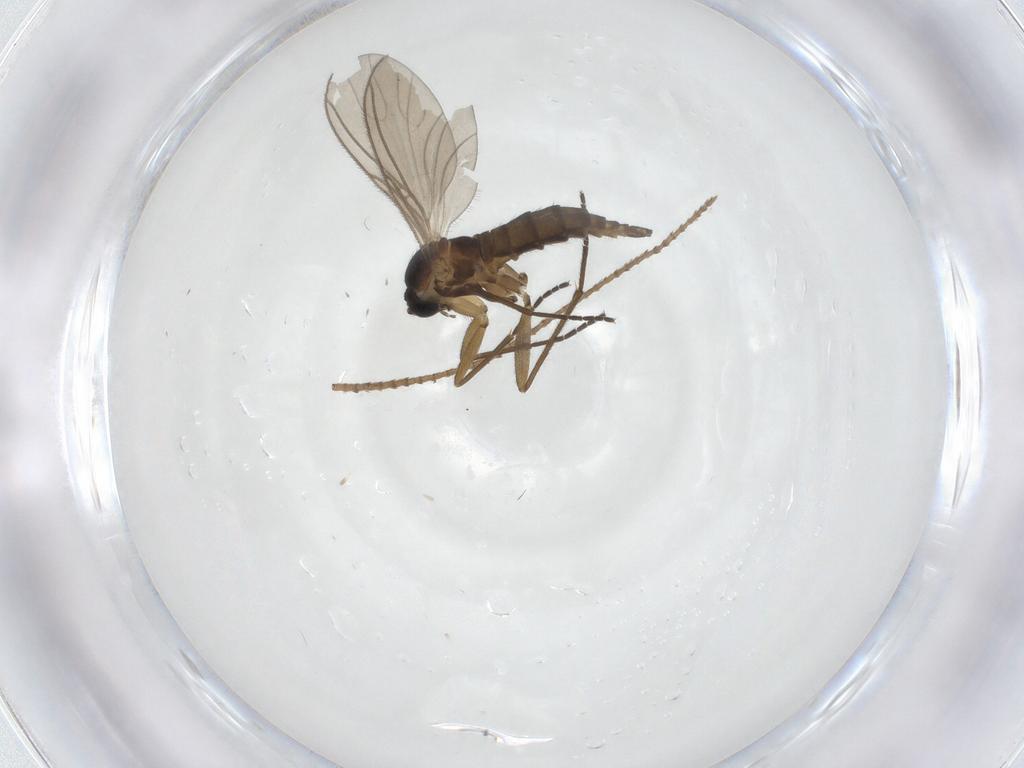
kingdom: Animalia
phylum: Arthropoda
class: Insecta
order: Diptera
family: Sciaridae
